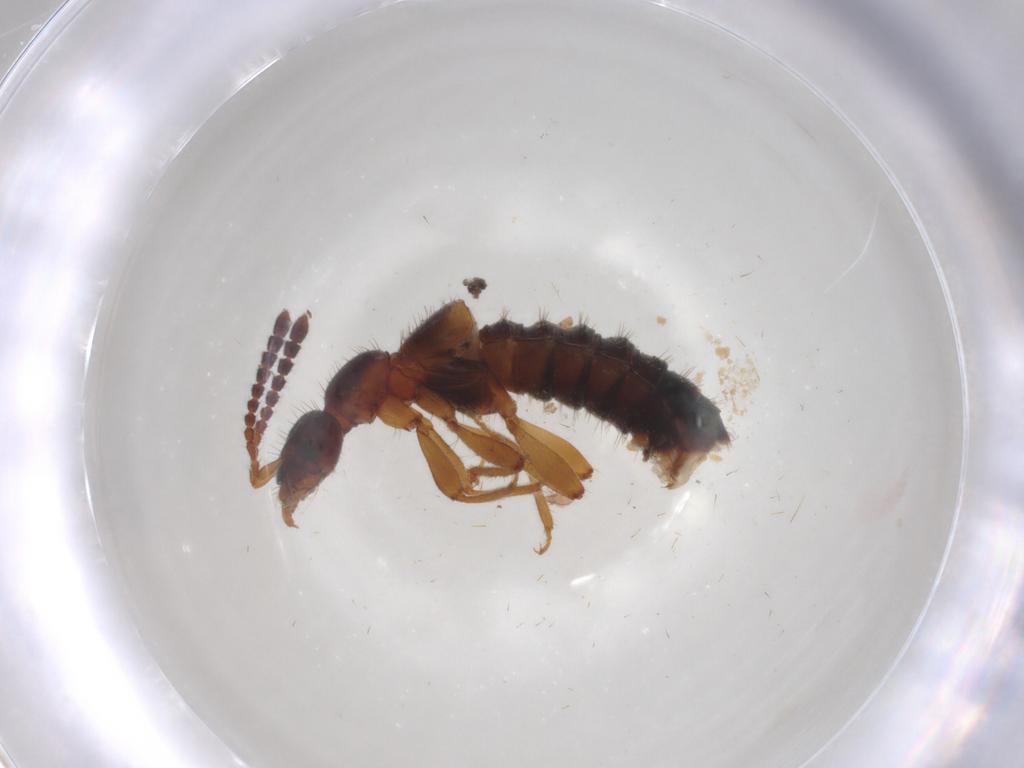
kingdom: Animalia
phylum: Arthropoda
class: Insecta
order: Coleoptera
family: Staphylinidae
